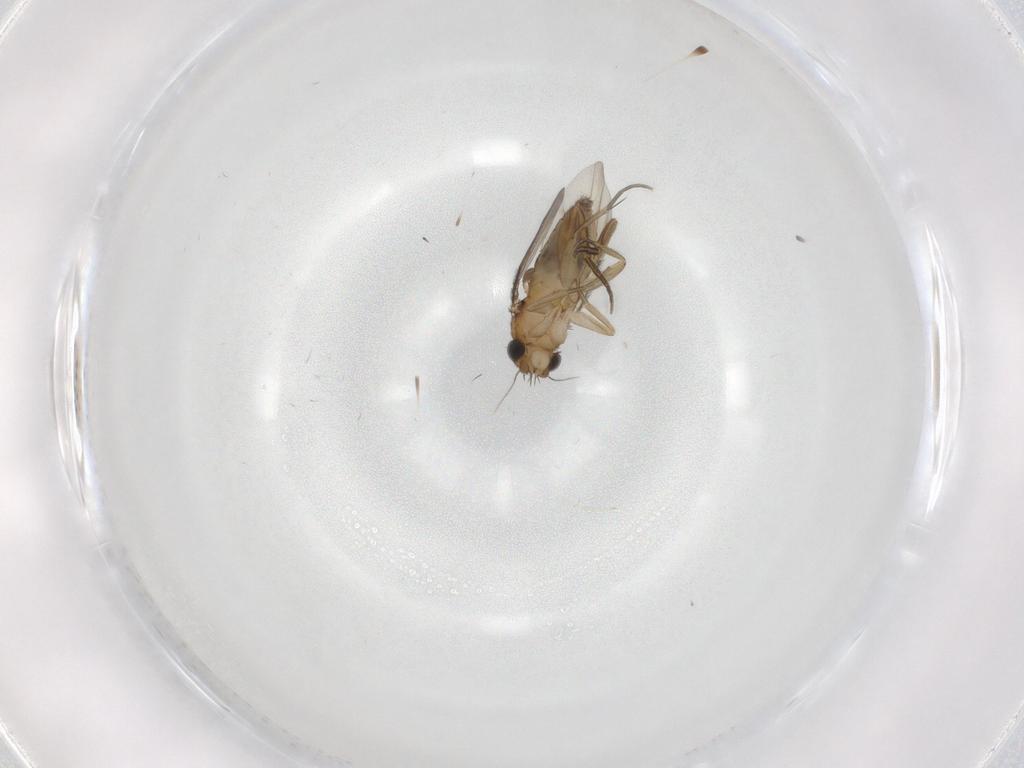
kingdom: Animalia
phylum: Arthropoda
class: Insecta
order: Diptera
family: Phoridae
